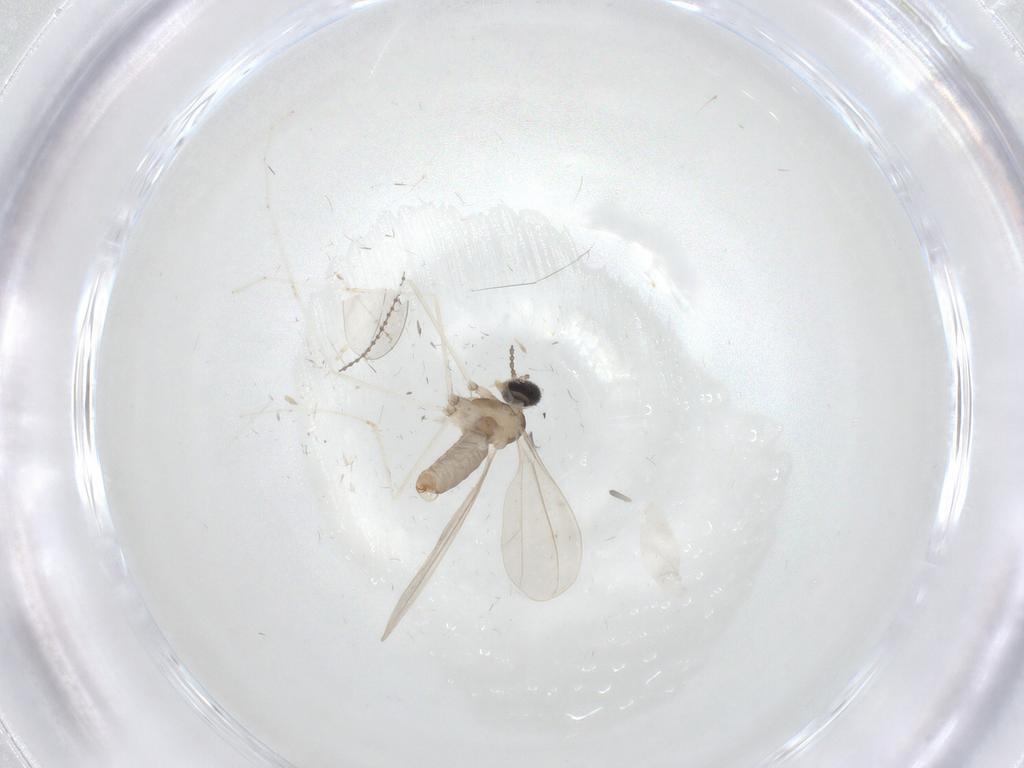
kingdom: Animalia
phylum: Arthropoda
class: Insecta
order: Diptera
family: Cecidomyiidae
